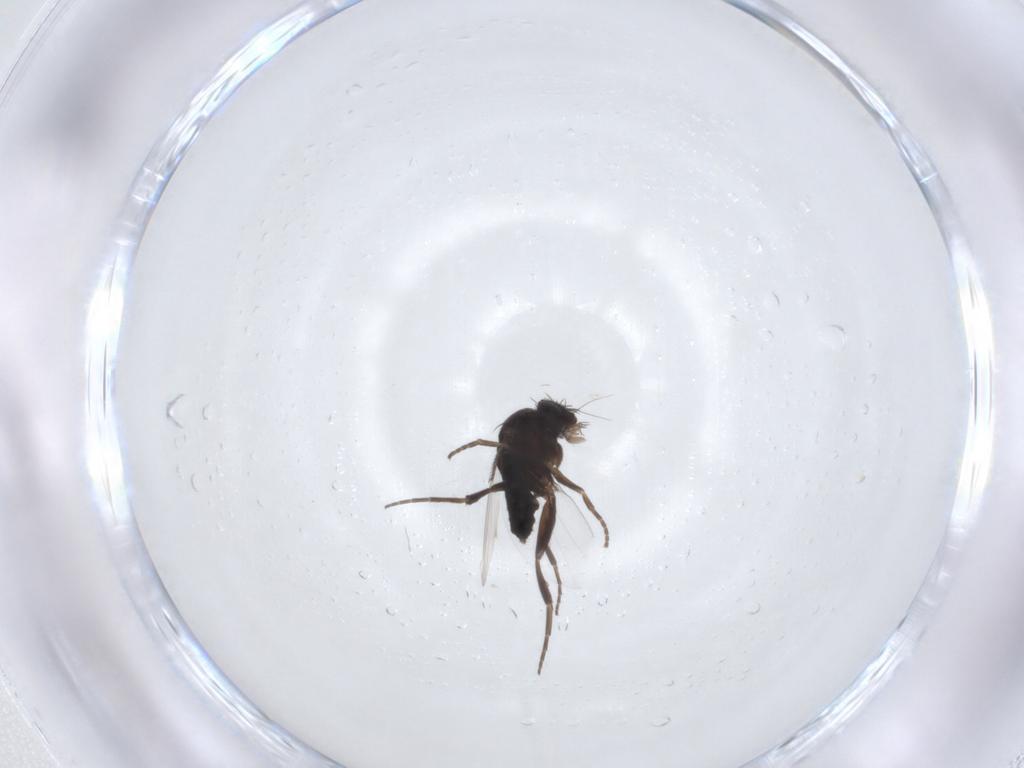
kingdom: Animalia
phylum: Arthropoda
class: Insecta
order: Diptera
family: Phoridae
